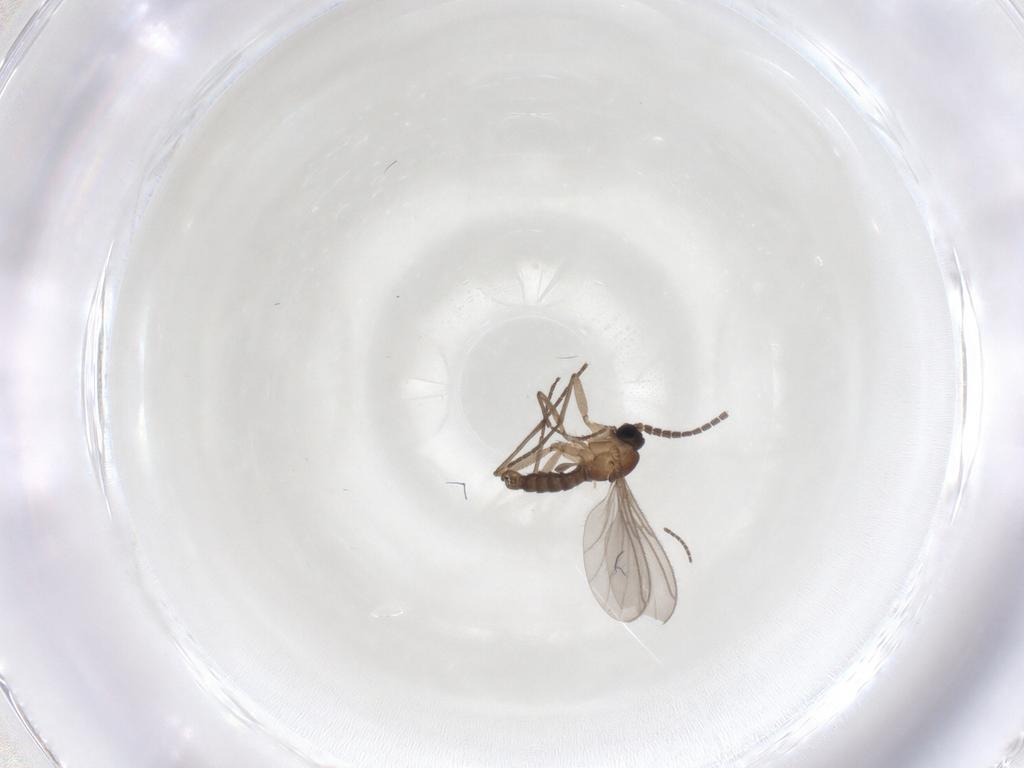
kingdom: Animalia
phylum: Arthropoda
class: Insecta
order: Diptera
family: Sciaridae
